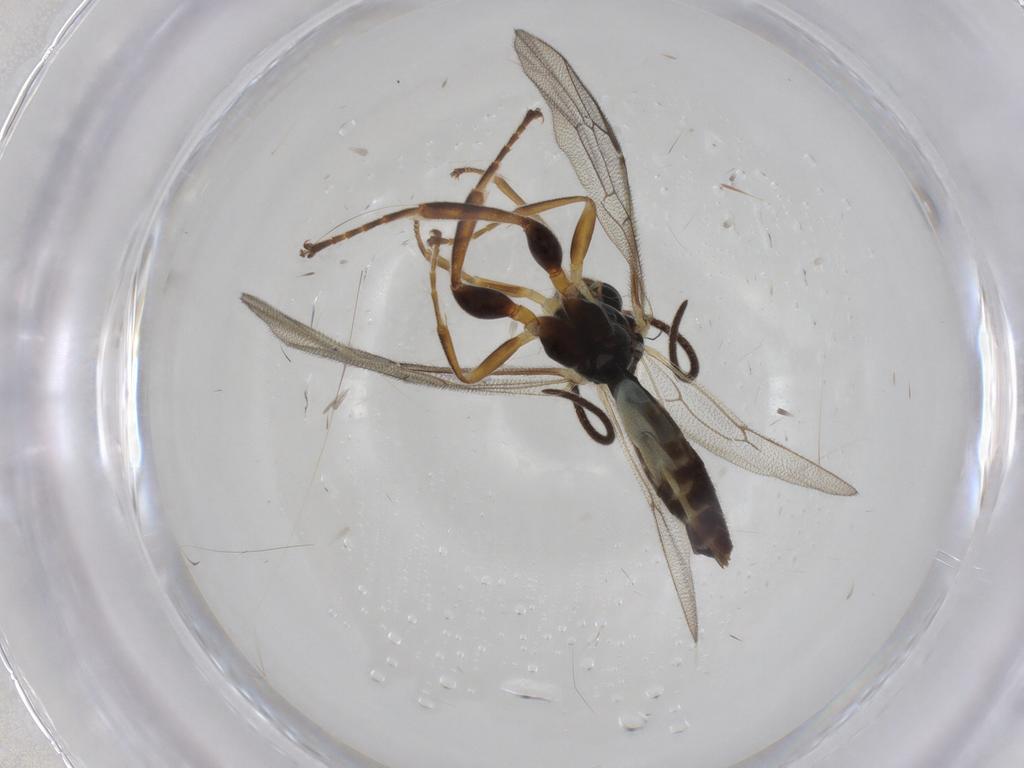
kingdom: Animalia
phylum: Arthropoda
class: Insecta
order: Hymenoptera
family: Ichneumonidae
